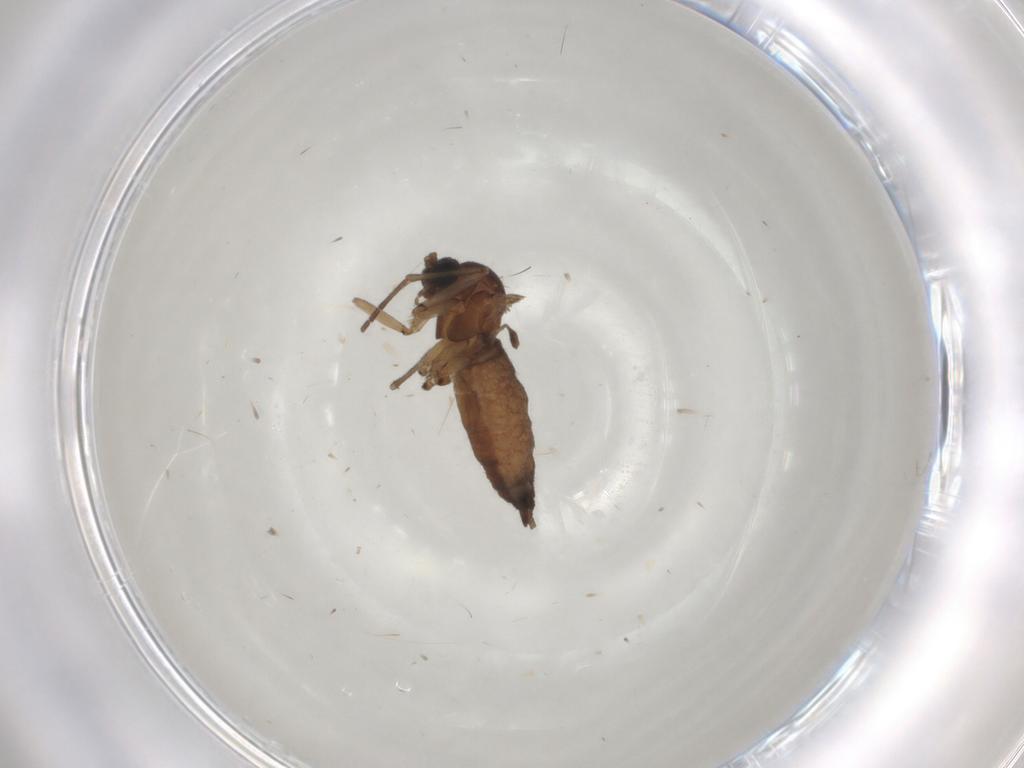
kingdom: Animalia
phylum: Arthropoda
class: Insecta
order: Diptera
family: Sciaridae
